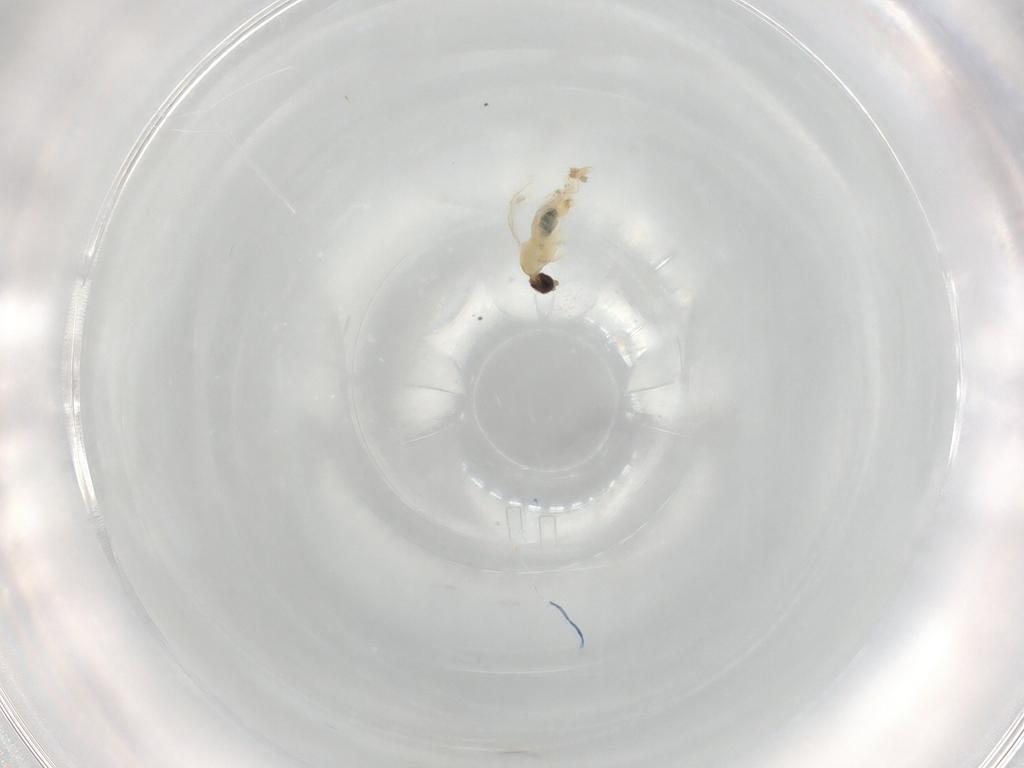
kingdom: Animalia
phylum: Arthropoda
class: Insecta
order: Diptera
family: Cecidomyiidae
